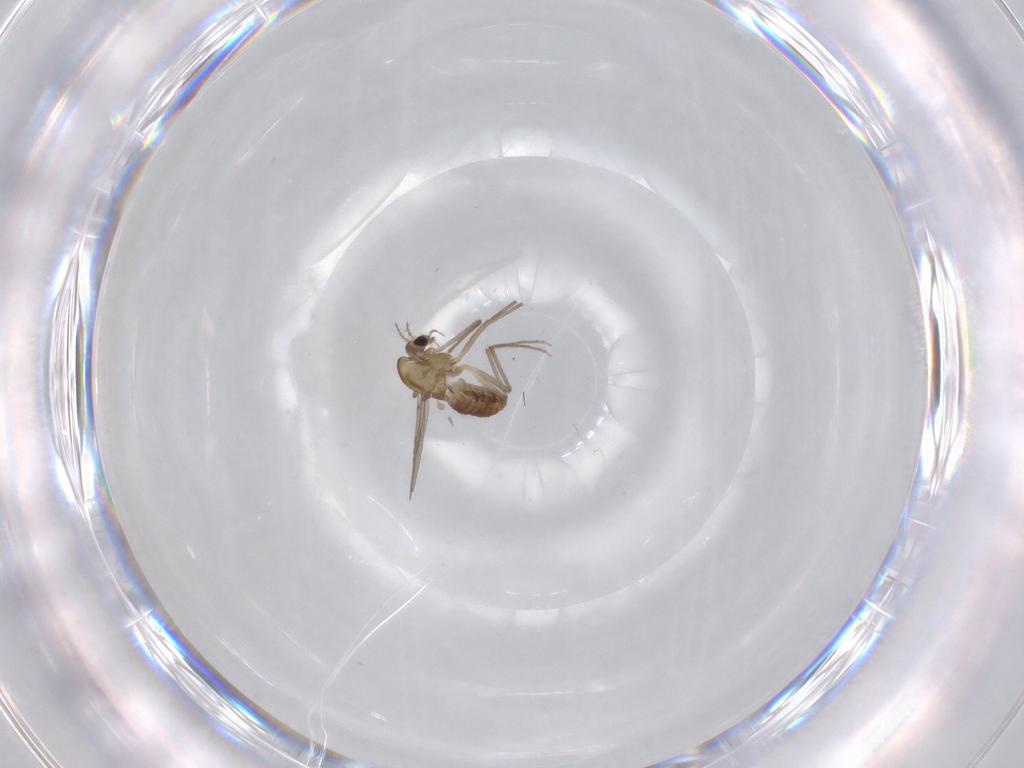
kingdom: Animalia
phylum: Arthropoda
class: Insecta
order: Diptera
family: Chironomidae
